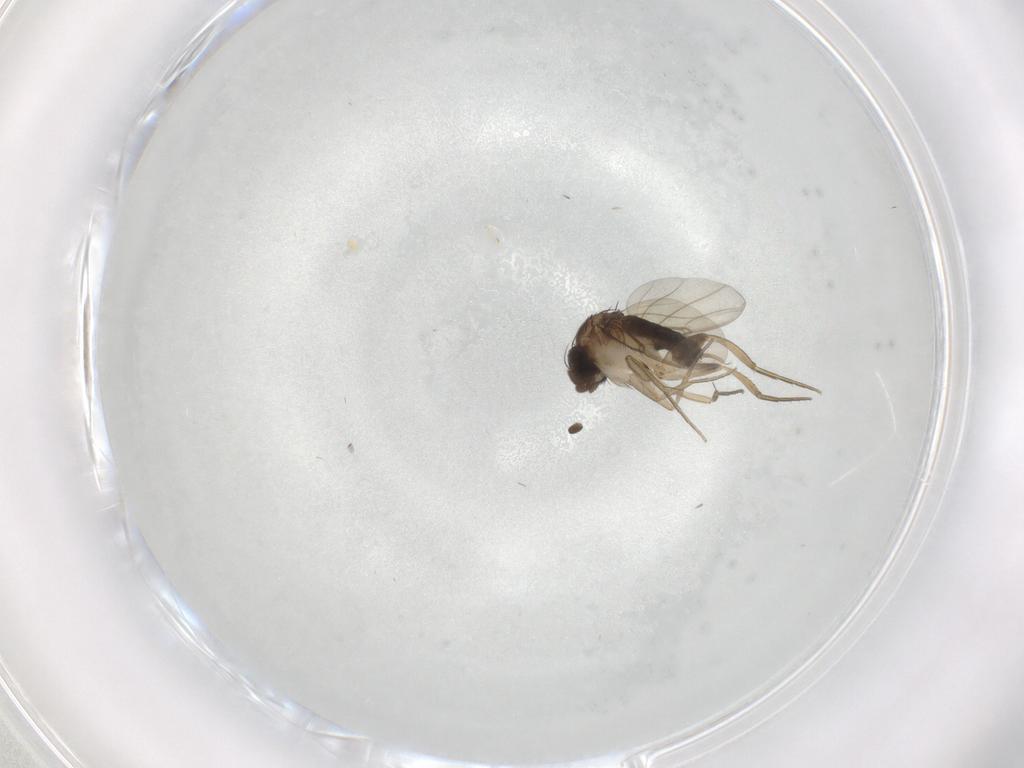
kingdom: Animalia
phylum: Arthropoda
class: Insecta
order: Diptera
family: Phoridae
